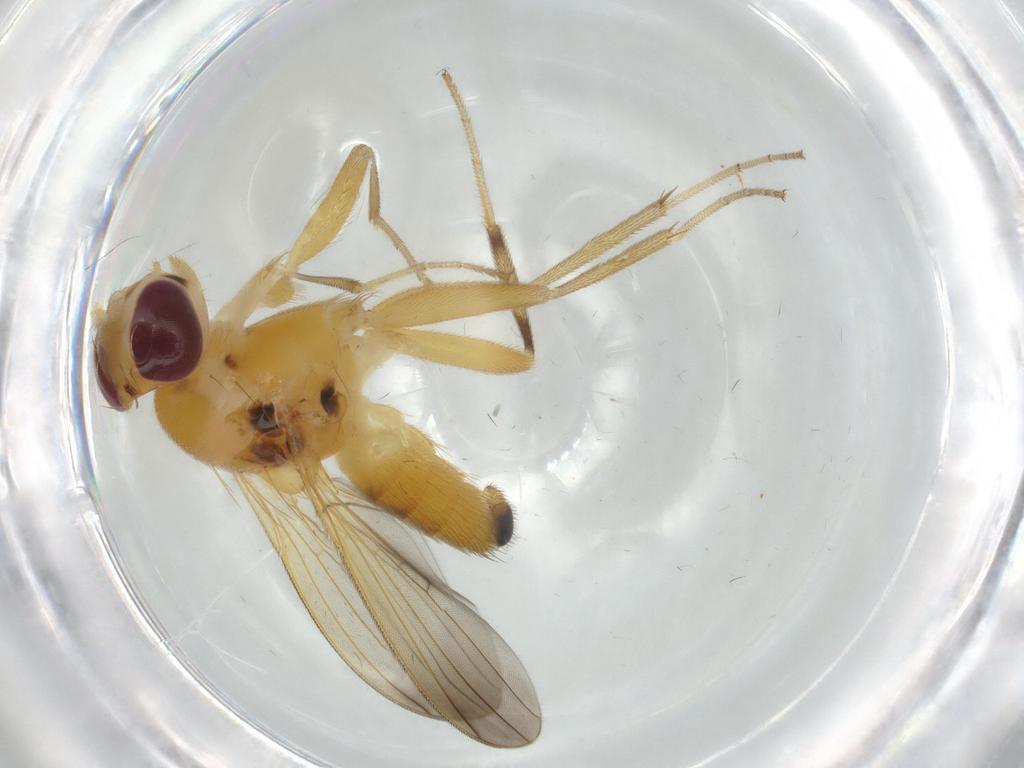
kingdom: Animalia
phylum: Arthropoda
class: Insecta
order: Diptera
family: Clusiidae
